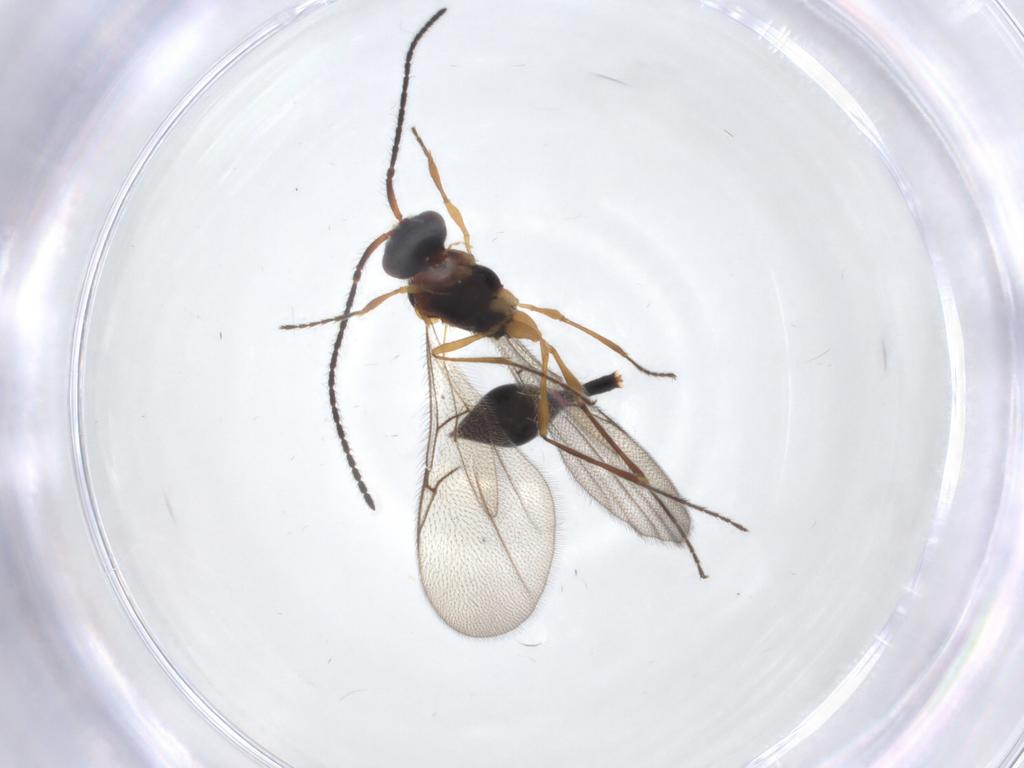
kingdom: Animalia
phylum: Arthropoda
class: Insecta
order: Hymenoptera
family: Diapriidae
